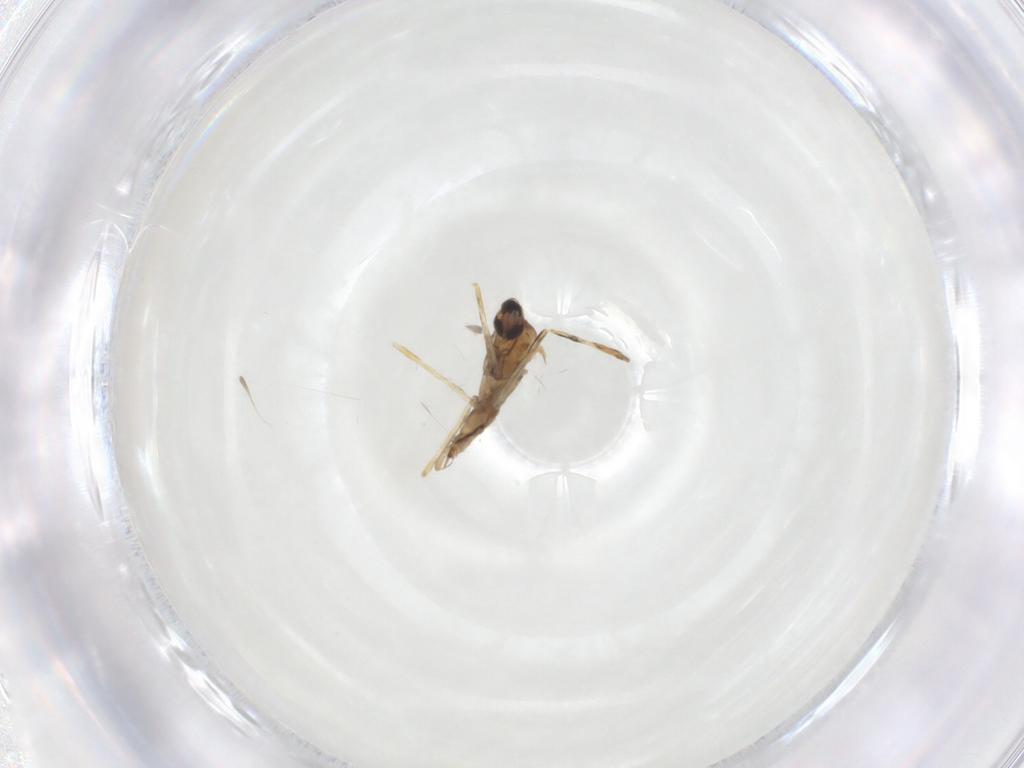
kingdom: Animalia
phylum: Arthropoda
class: Insecta
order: Diptera
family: Cecidomyiidae
